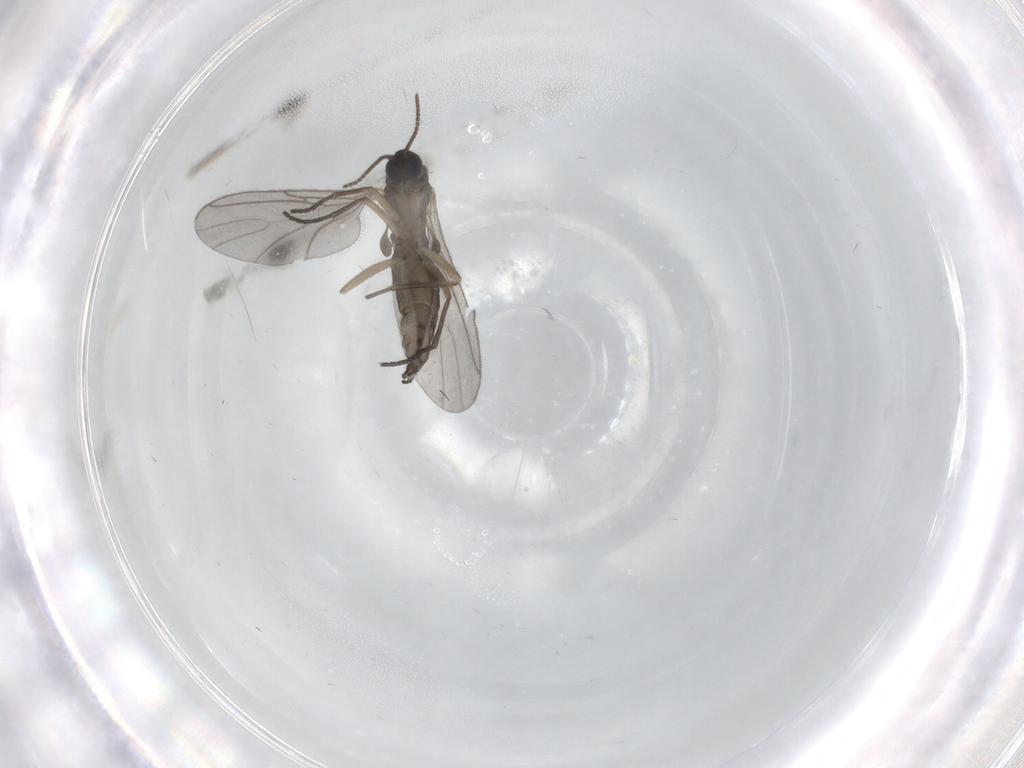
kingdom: Animalia
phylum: Arthropoda
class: Insecta
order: Diptera
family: Sciaridae
